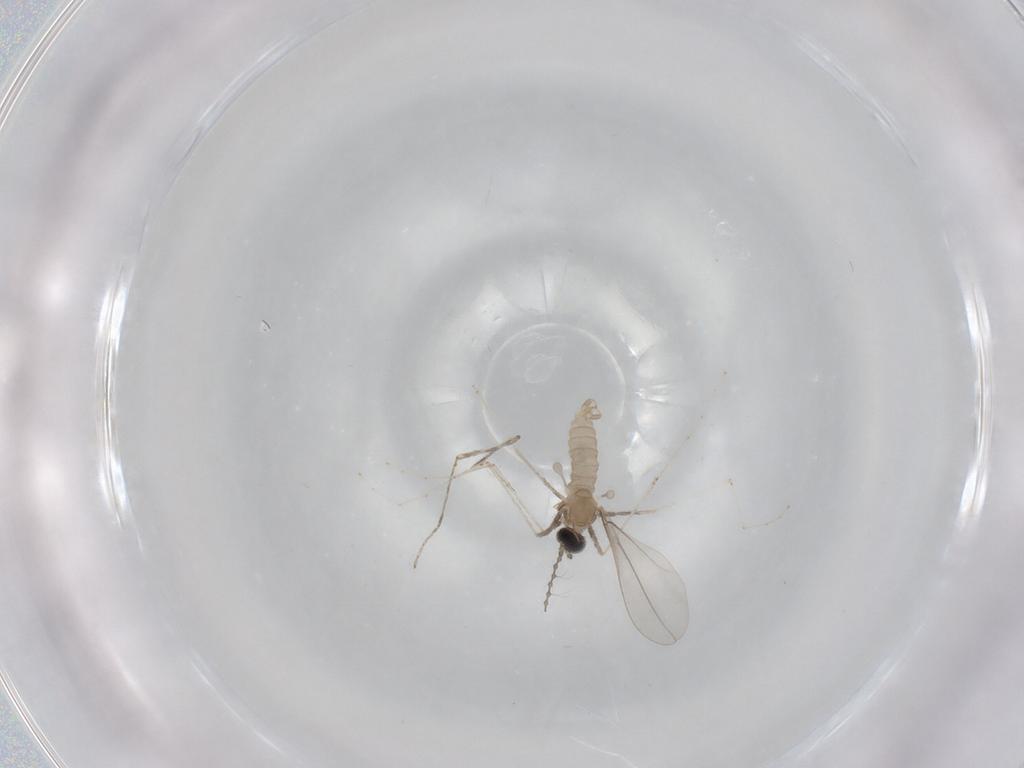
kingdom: Animalia
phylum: Arthropoda
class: Insecta
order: Diptera
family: Cecidomyiidae
